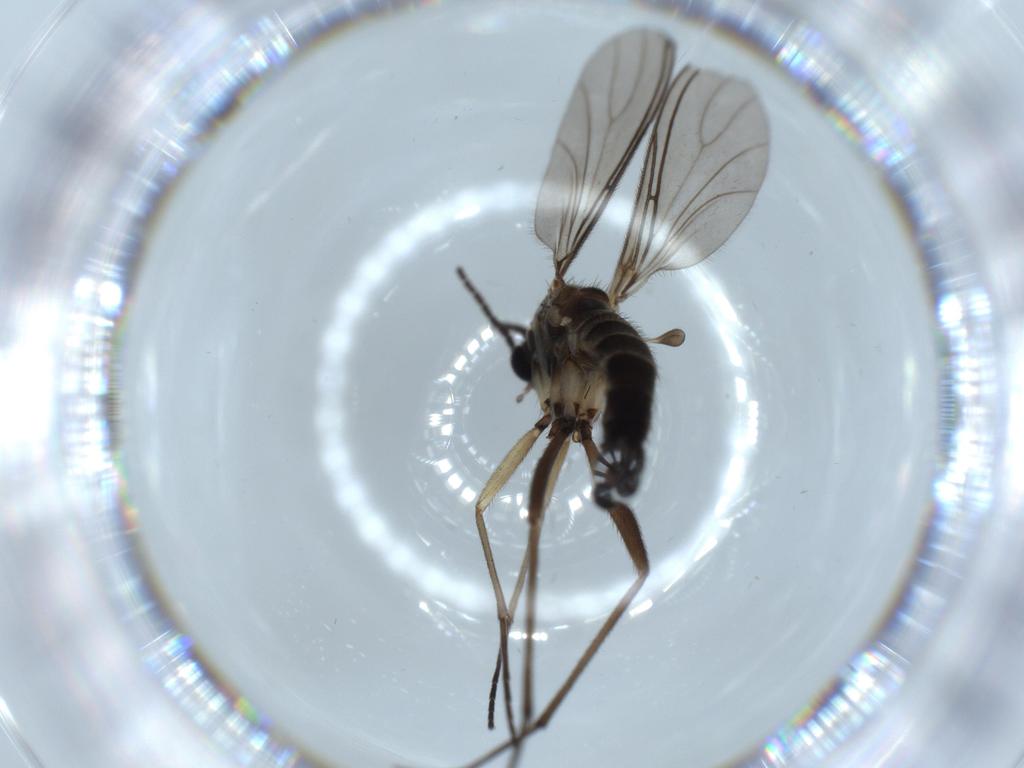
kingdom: Animalia
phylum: Arthropoda
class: Insecta
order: Diptera
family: Sciaridae
